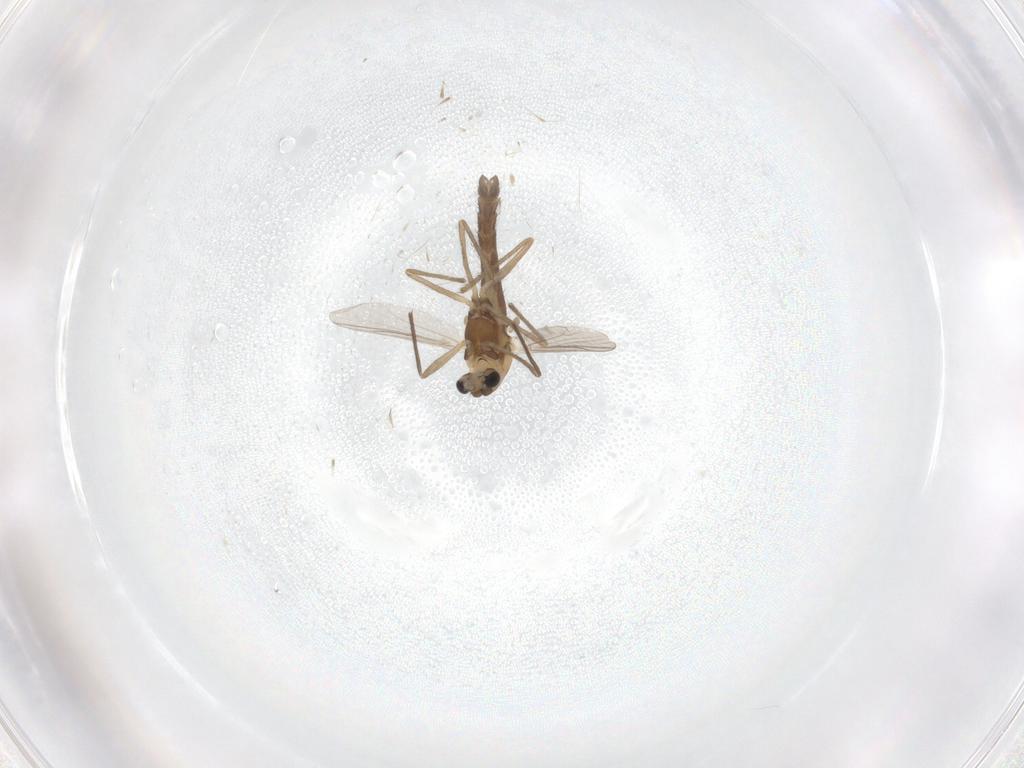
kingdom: Animalia
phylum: Arthropoda
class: Insecta
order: Diptera
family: Chironomidae
